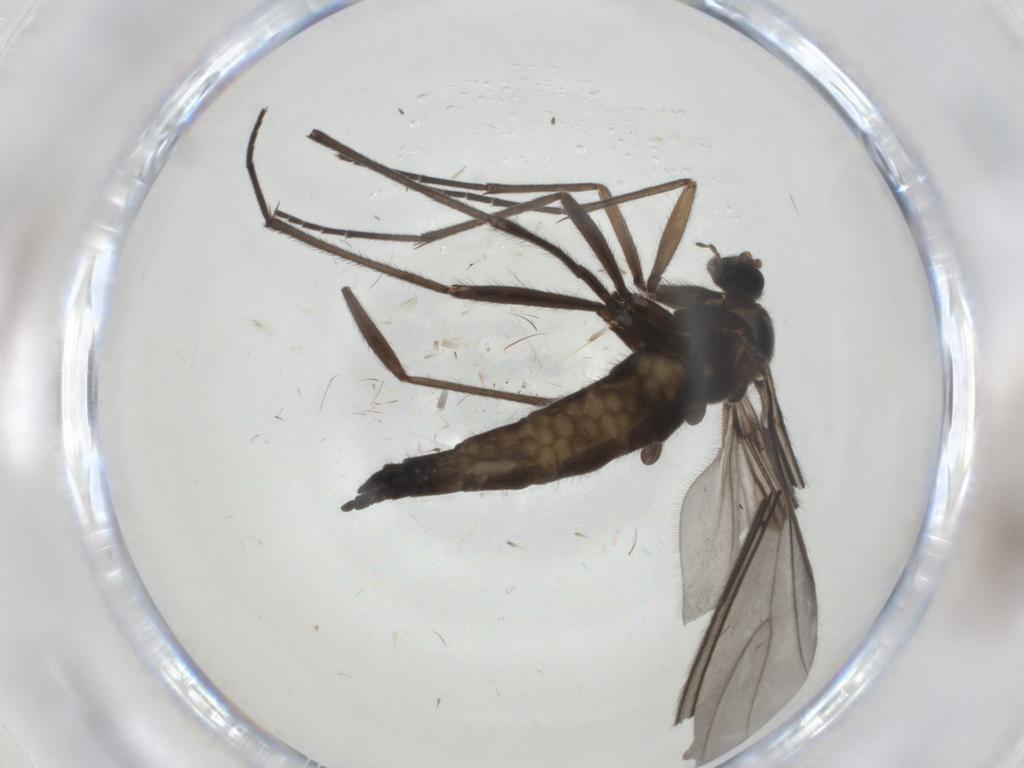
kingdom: Animalia
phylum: Arthropoda
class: Insecta
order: Diptera
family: Sciaridae
